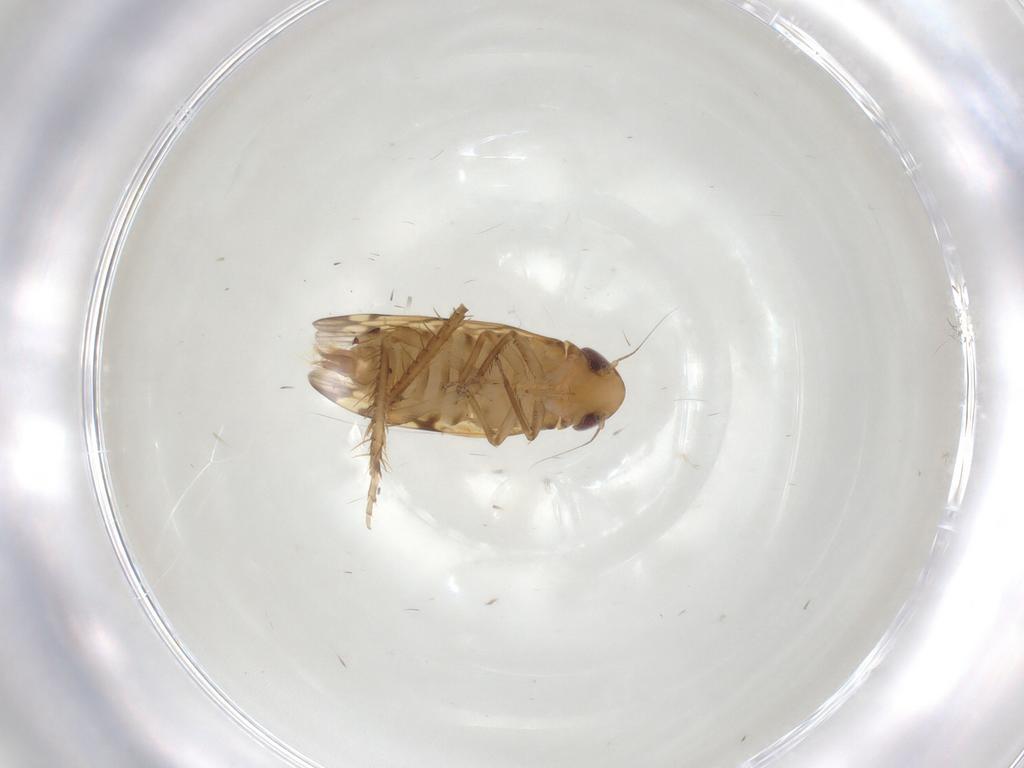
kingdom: Animalia
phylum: Arthropoda
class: Insecta
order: Hemiptera
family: Cicadellidae
